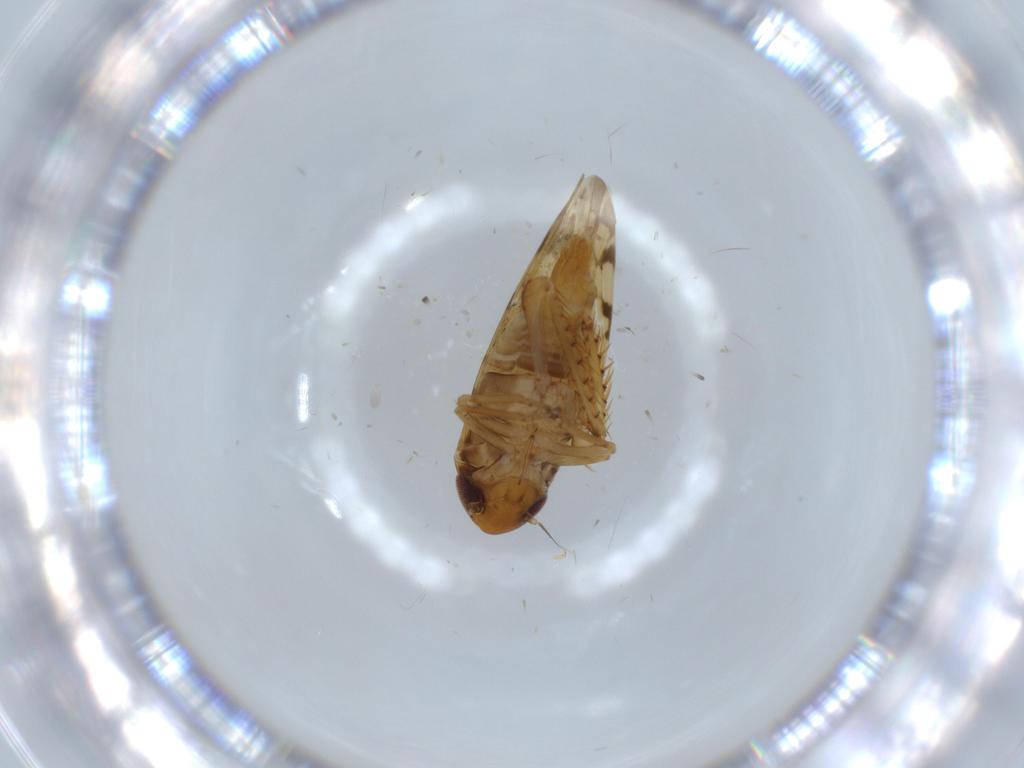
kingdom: Animalia
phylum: Arthropoda
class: Insecta
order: Hemiptera
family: Cicadellidae
